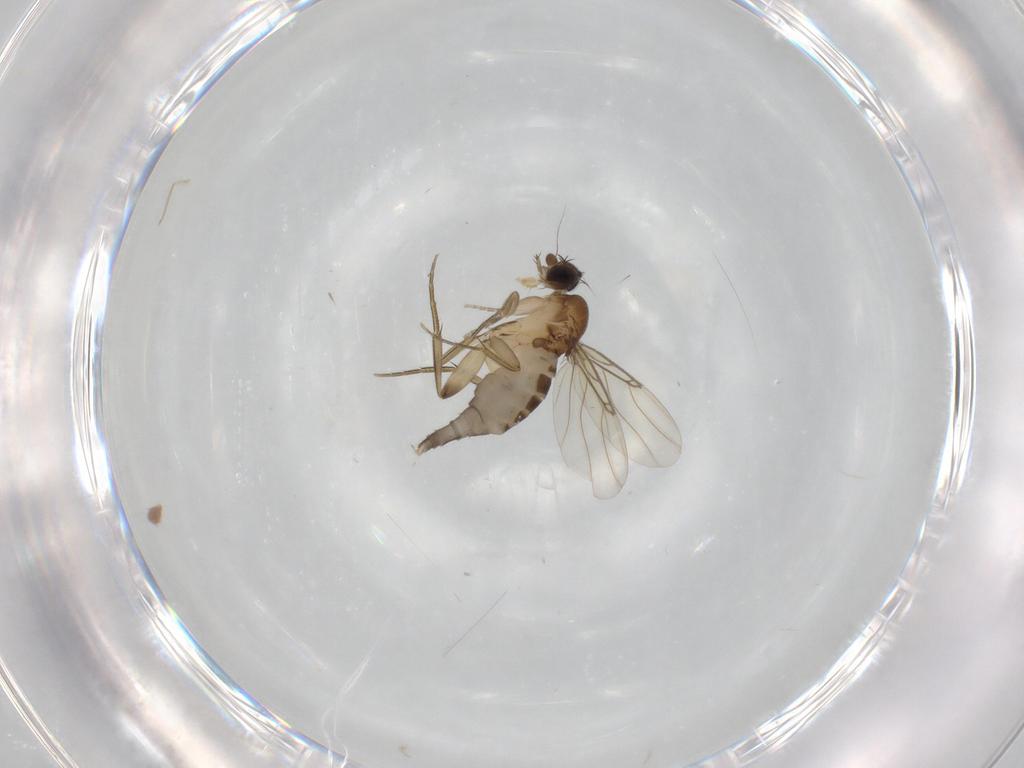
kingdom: Animalia
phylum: Arthropoda
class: Insecta
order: Diptera
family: Phoridae
